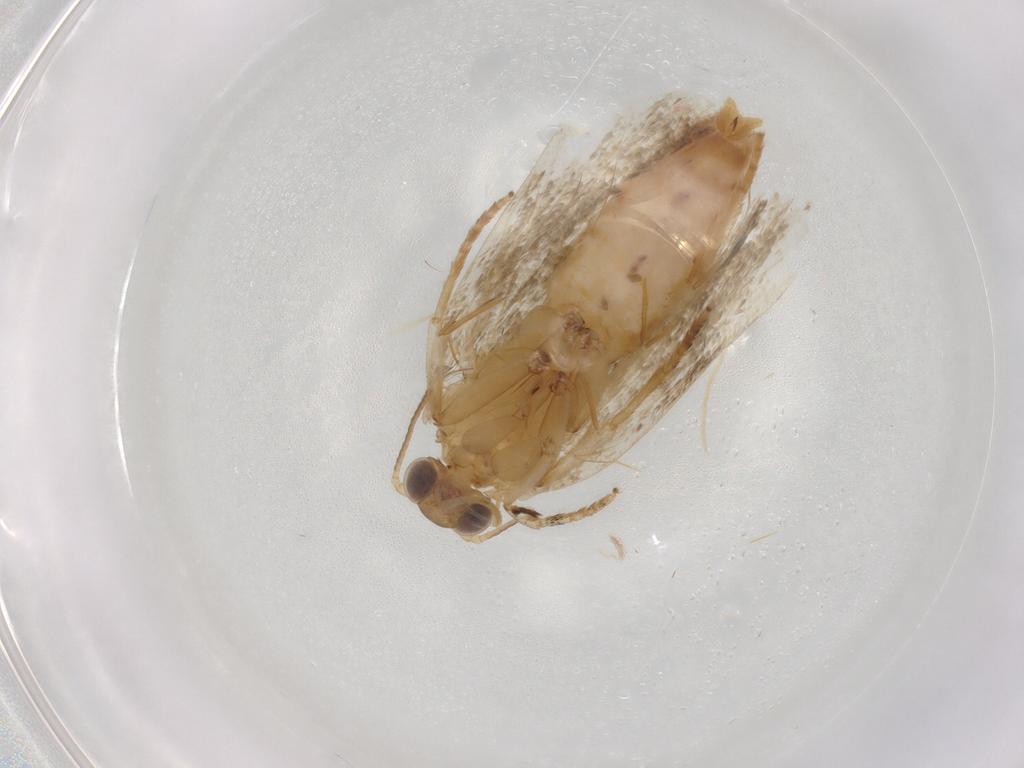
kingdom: Animalia
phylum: Arthropoda
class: Insecta
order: Lepidoptera
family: Tortricidae
